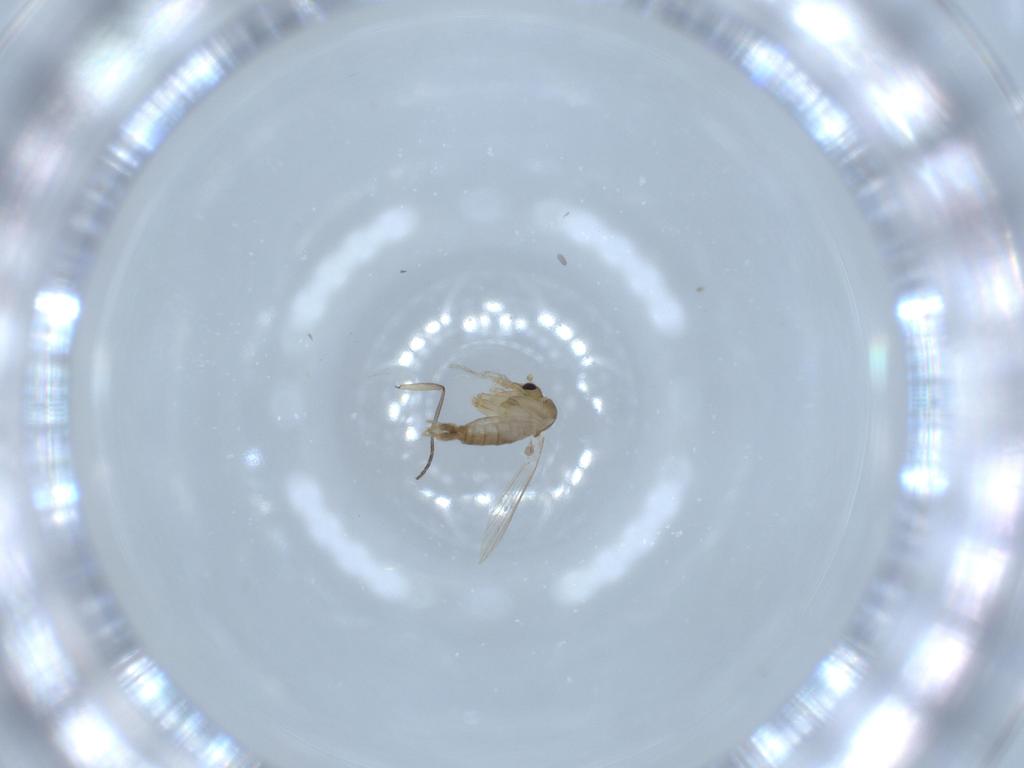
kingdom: Animalia
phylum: Arthropoda
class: Insecta
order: Diptera
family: Psychodidae
